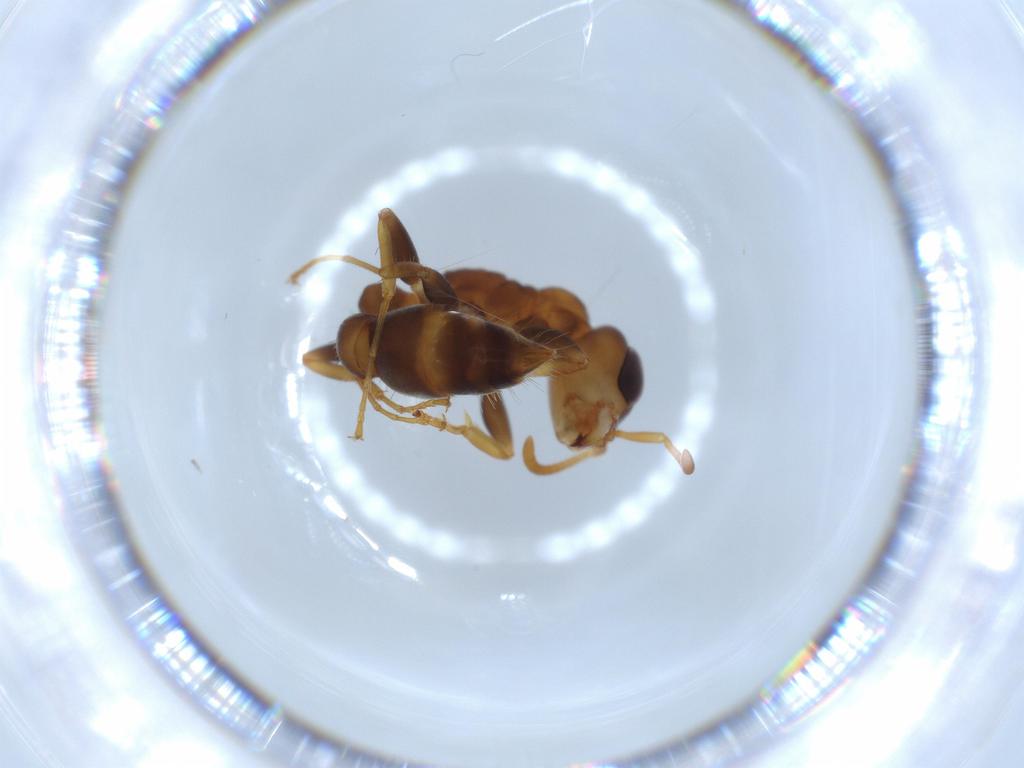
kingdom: Animalia
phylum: Arthropoda
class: Insecta
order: Hymenoptera
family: Formicidae
